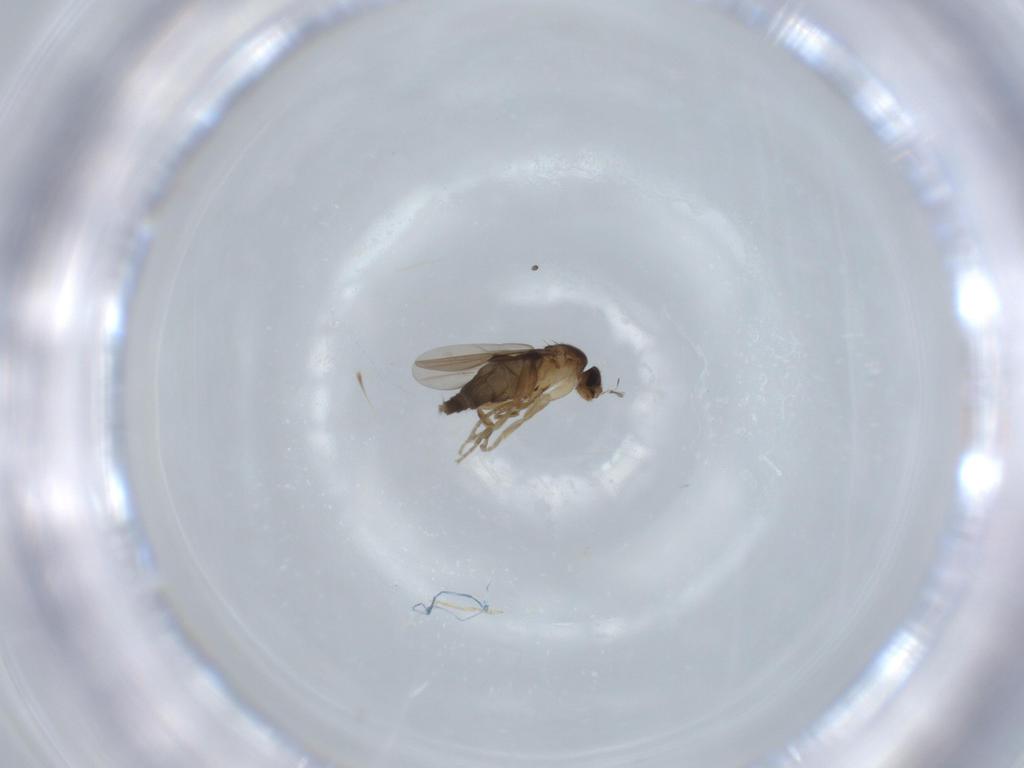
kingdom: Animalia
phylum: Arthropoda
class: Insecta
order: Diptera
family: Phoridae
